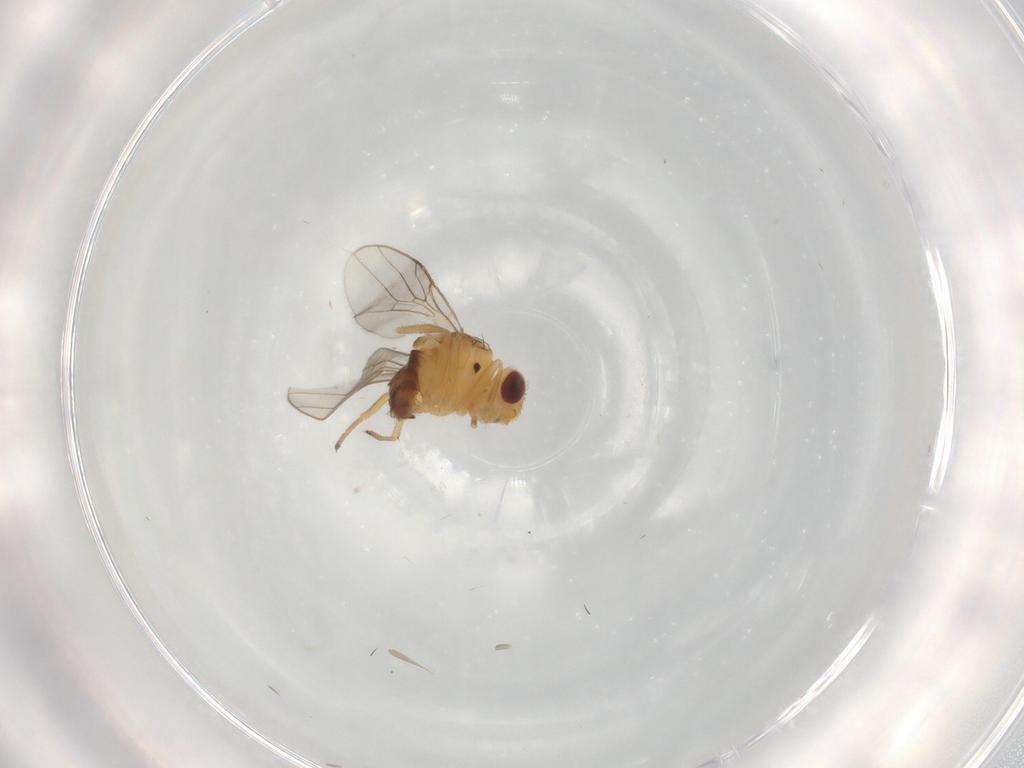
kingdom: Animalia
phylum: Arthropoda
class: Insecta
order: Diptera
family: Chloropidae
